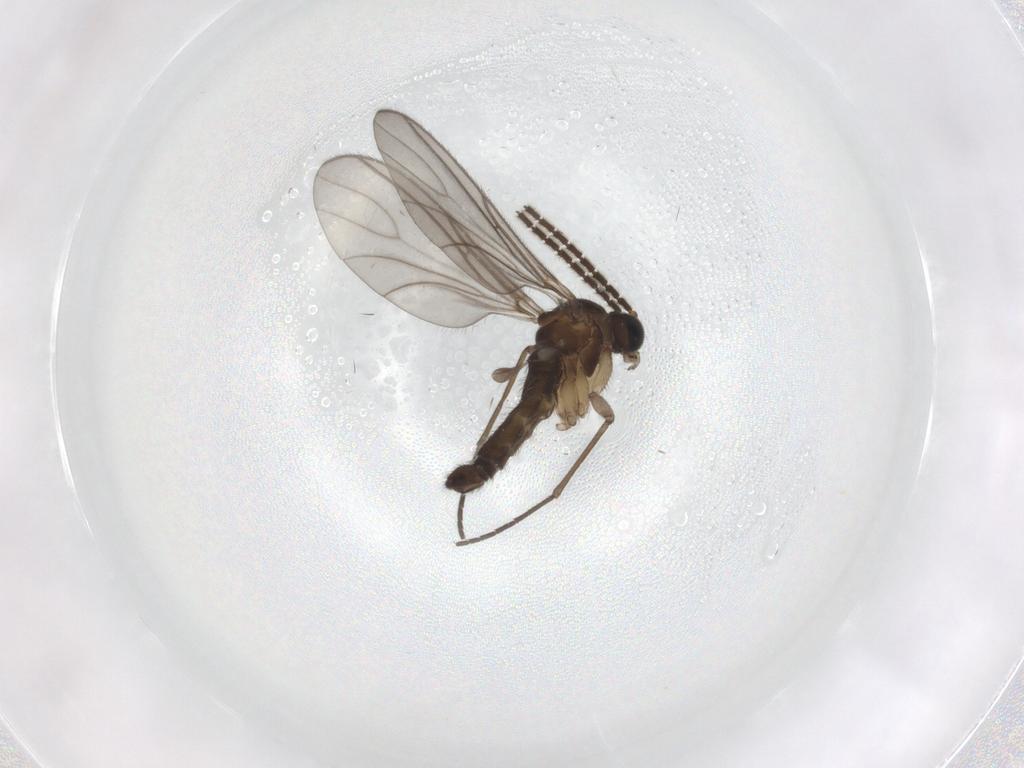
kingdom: Animalia
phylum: Arthropoda
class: Insecta
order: Diptera
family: Sciaridae
